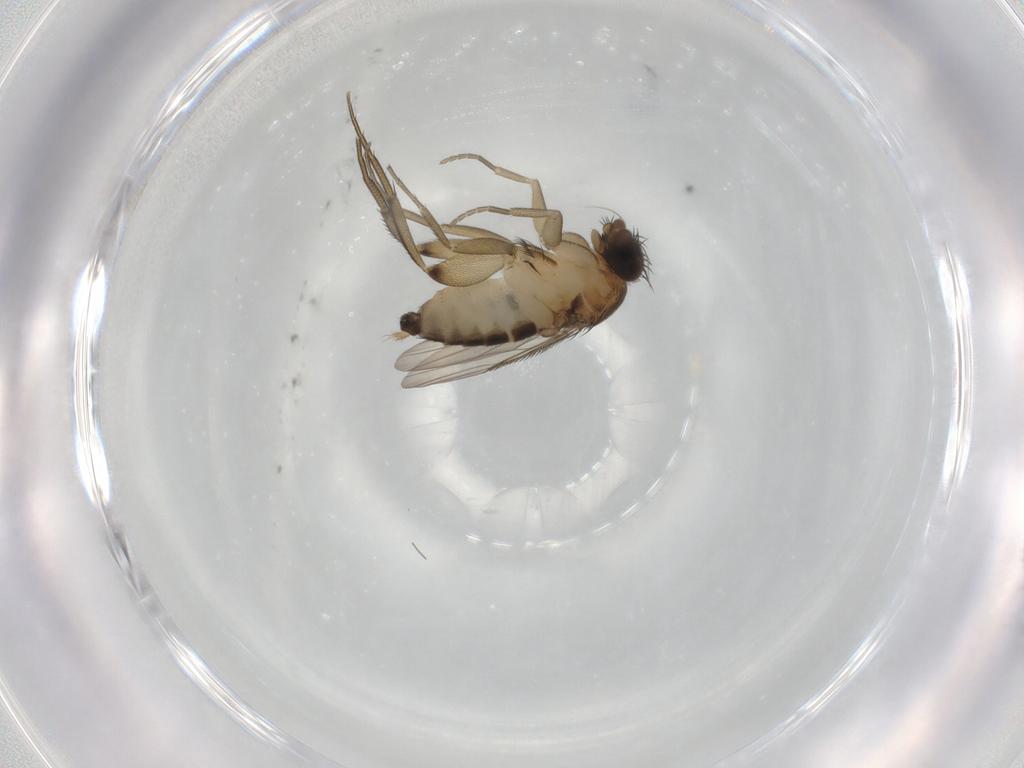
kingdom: Animalia
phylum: Arthropoda
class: Insecta
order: Diptera
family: Phoridae
